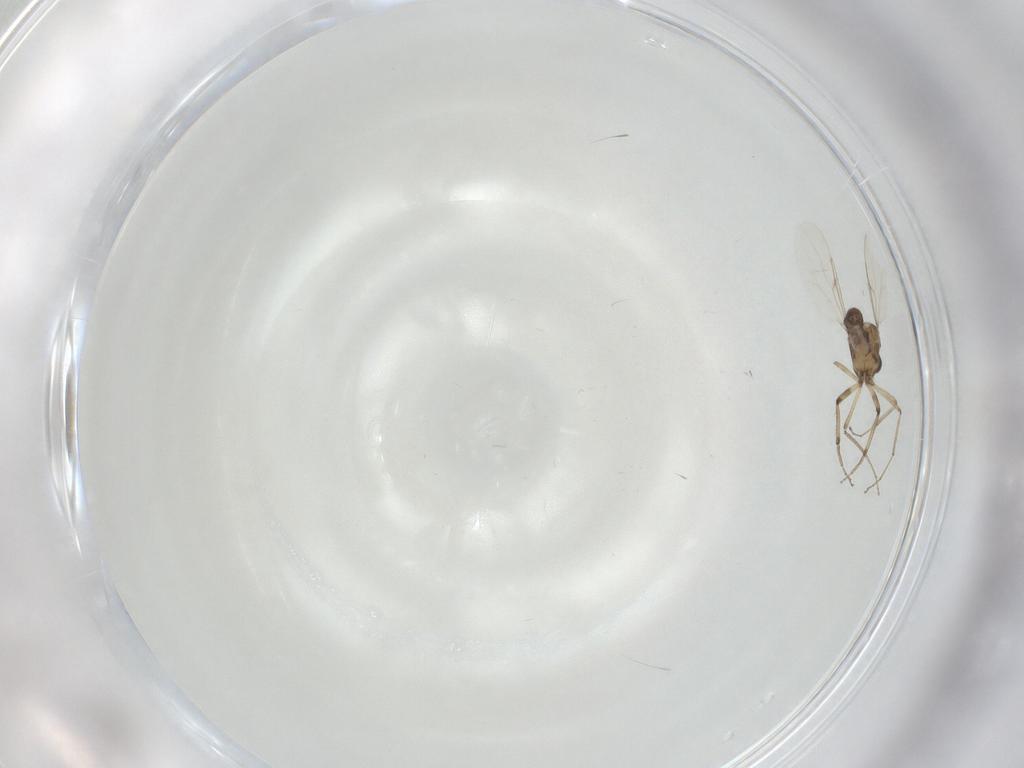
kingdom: Animalia
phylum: Arthropoda
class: Insecta
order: Diptera
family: Ceratopogonidae
